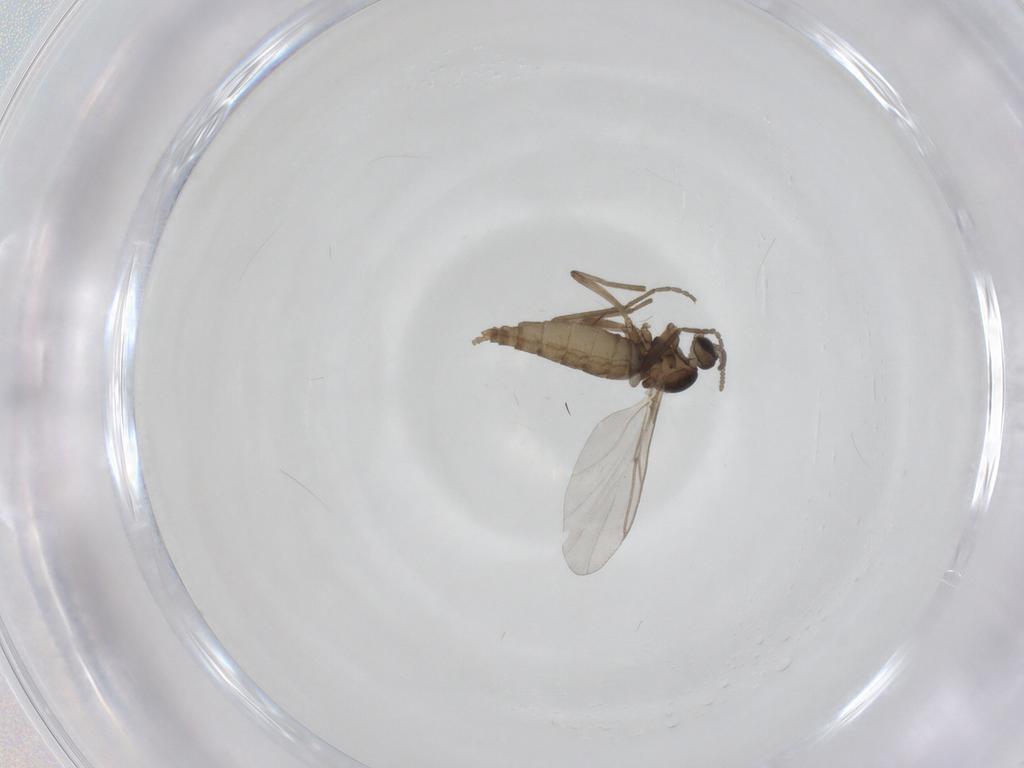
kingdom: Animalia
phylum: Arthropoda
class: Insecta
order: Diptera
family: Cecidomyiidae
